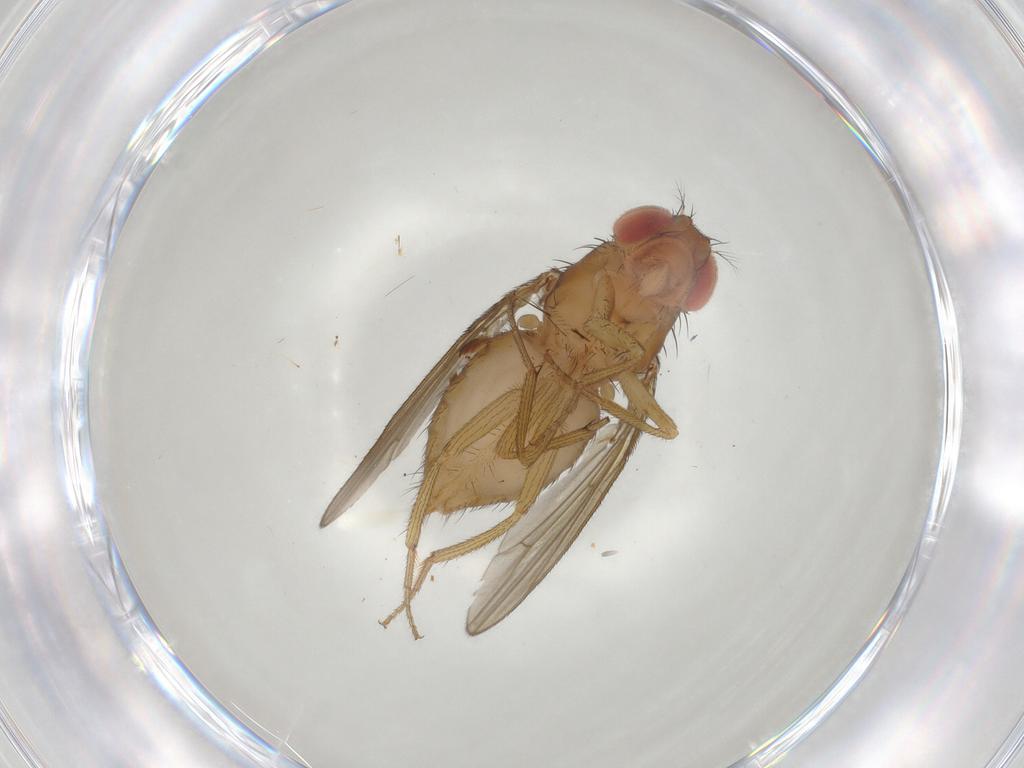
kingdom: Animalia
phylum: Arthropoda
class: Insecta
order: Diptera
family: Drosophilidae
